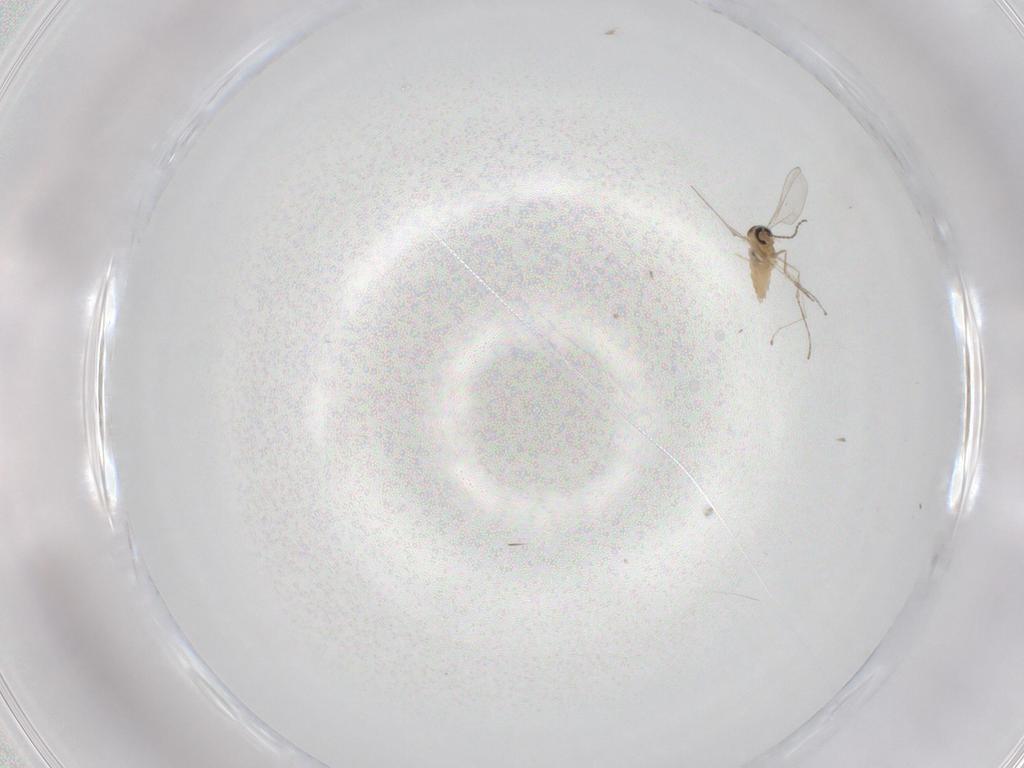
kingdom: Animalia
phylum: Arthropoda
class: Insecta
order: Diptera
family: Cecidomyiidae
